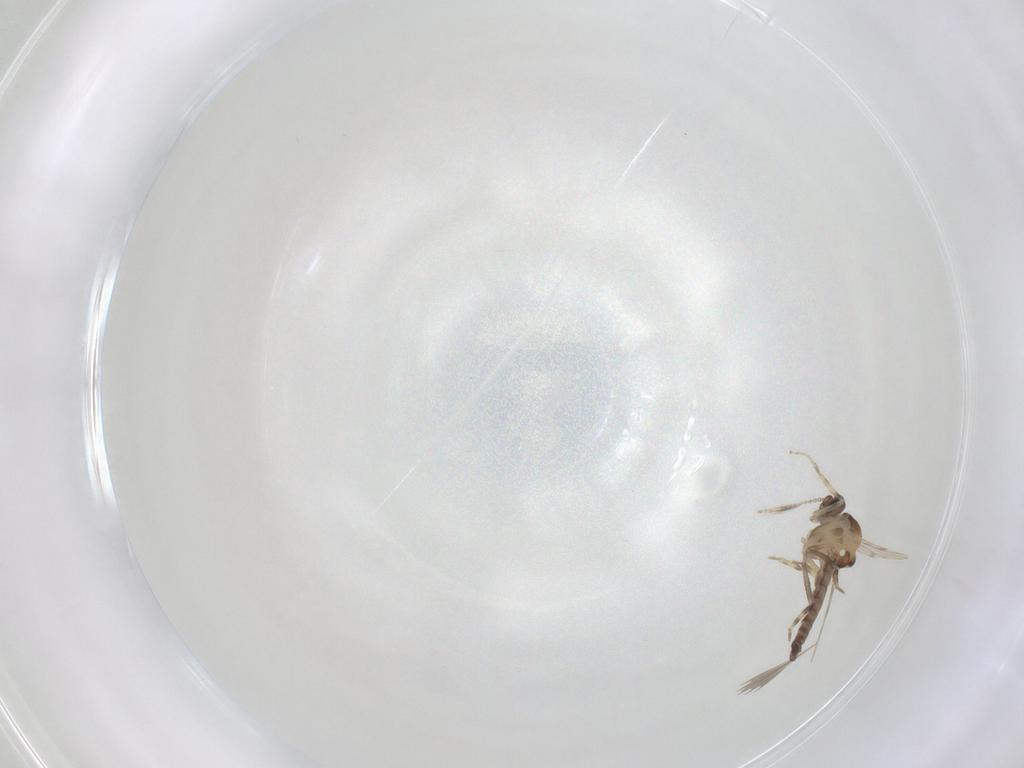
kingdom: Animalia
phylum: Arthropoda
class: Insecta
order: Diptera
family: Ceratopogonidae
